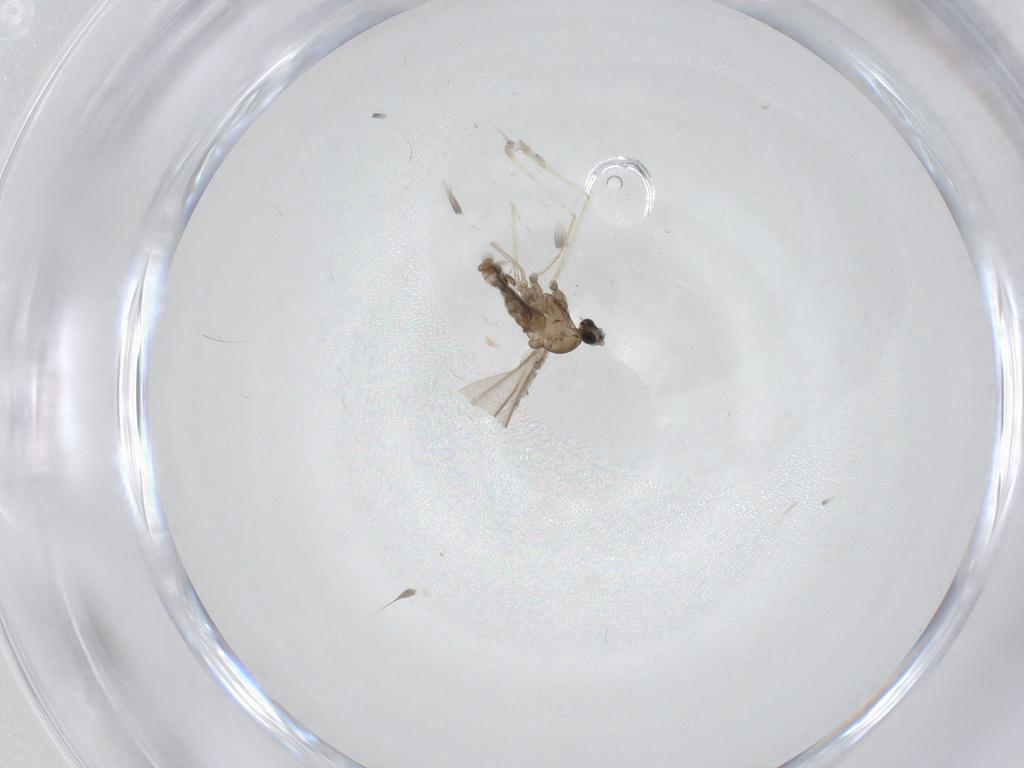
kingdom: Animalia
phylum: Arthropoda
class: Insecta
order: Diptera
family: Cecidomyiidae
